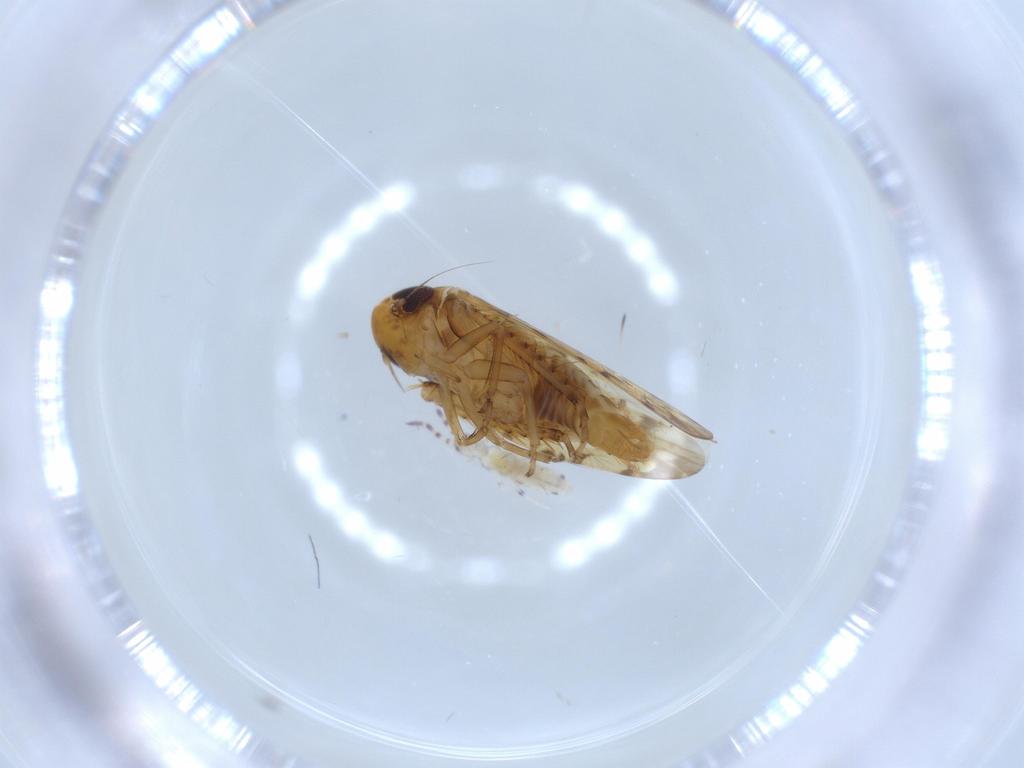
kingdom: Animalia
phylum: Arthropoda
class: Insecta
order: Hemiptera
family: Cicadellidae
